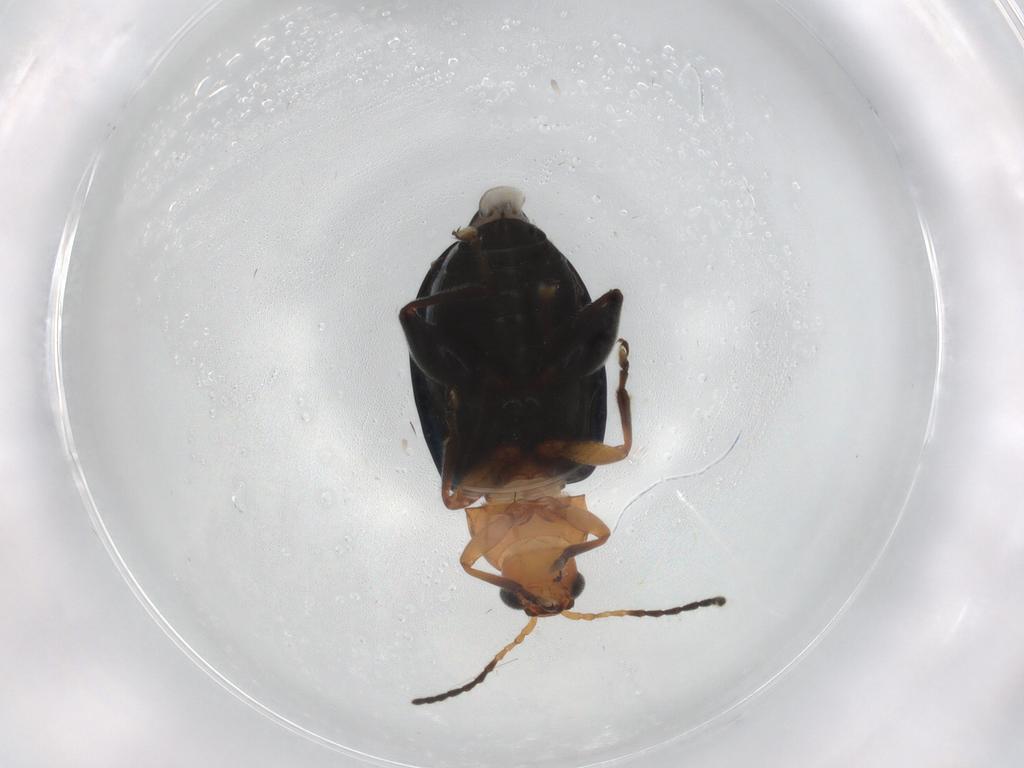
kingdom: Animalia
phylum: Arthropoda
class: Insecta
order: Coleoptera
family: Chrysomelidae
